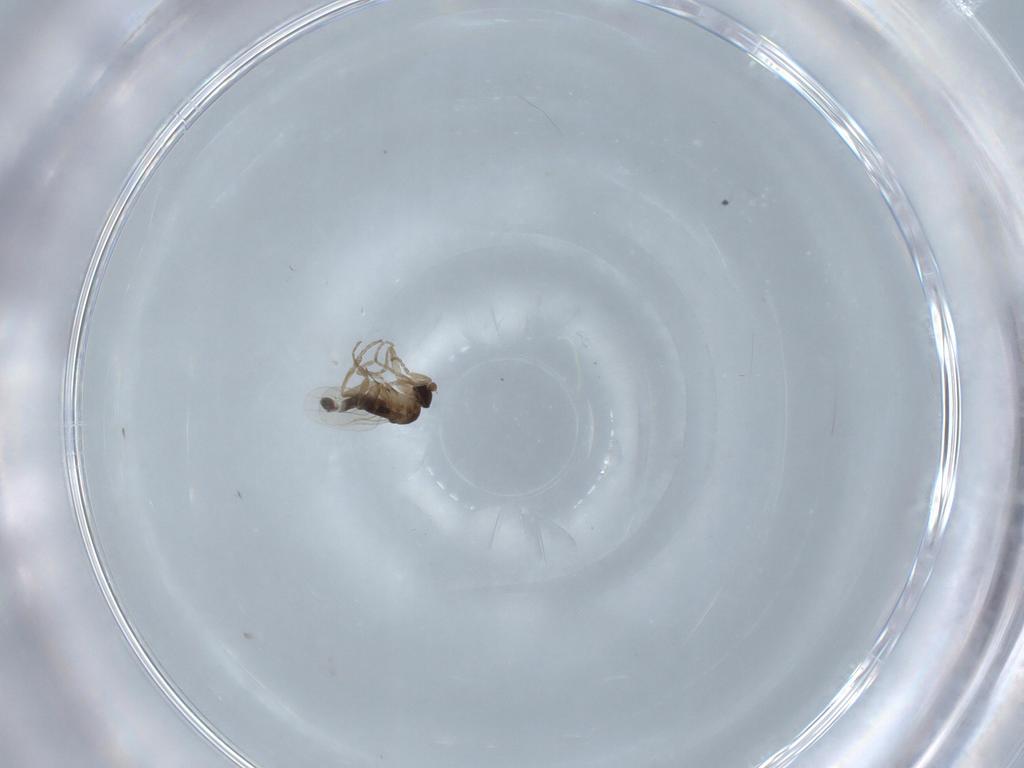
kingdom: Animalia
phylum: Arthropoda
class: Insecta
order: Diptera
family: Phoridae
